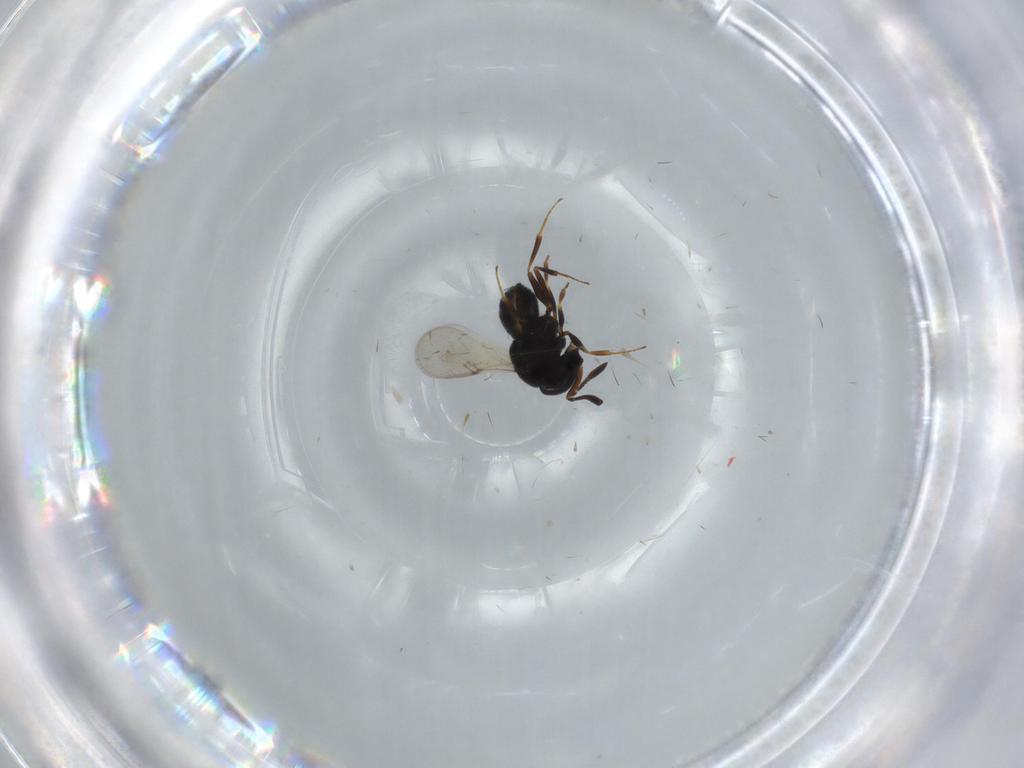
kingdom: Animalia
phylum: Arthropoda
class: Insecta
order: Hymenoptera
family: Scelionidae
